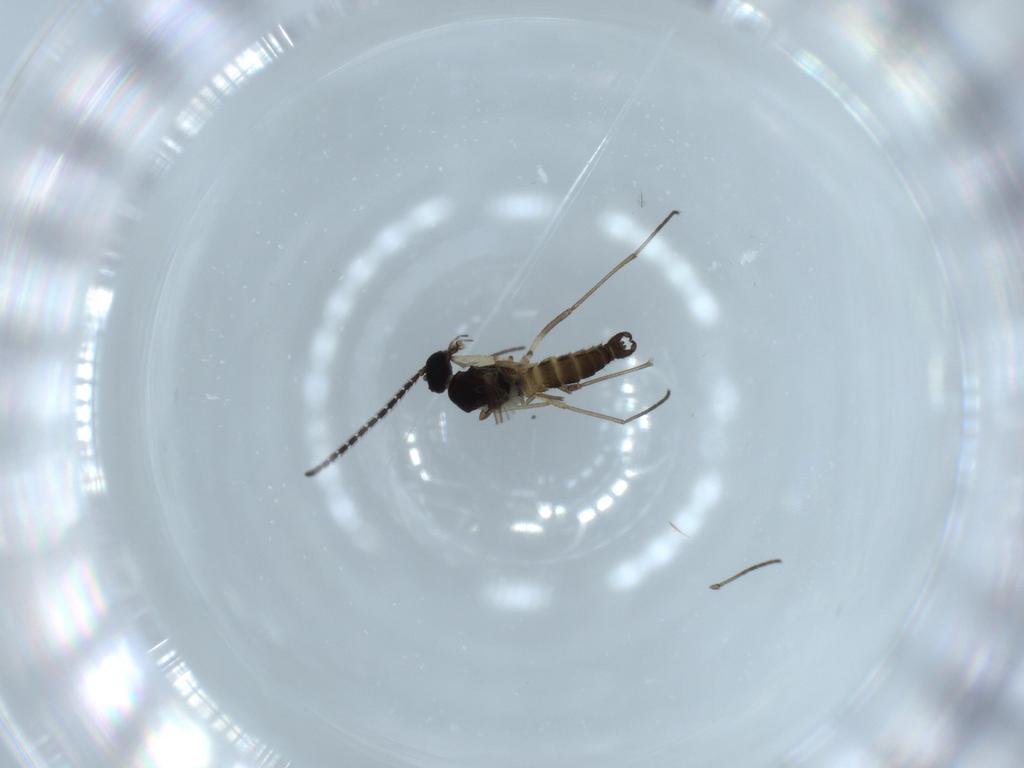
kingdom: Animalia
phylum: Arthropoda
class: Insecta
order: Diptera
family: Sciaridae
